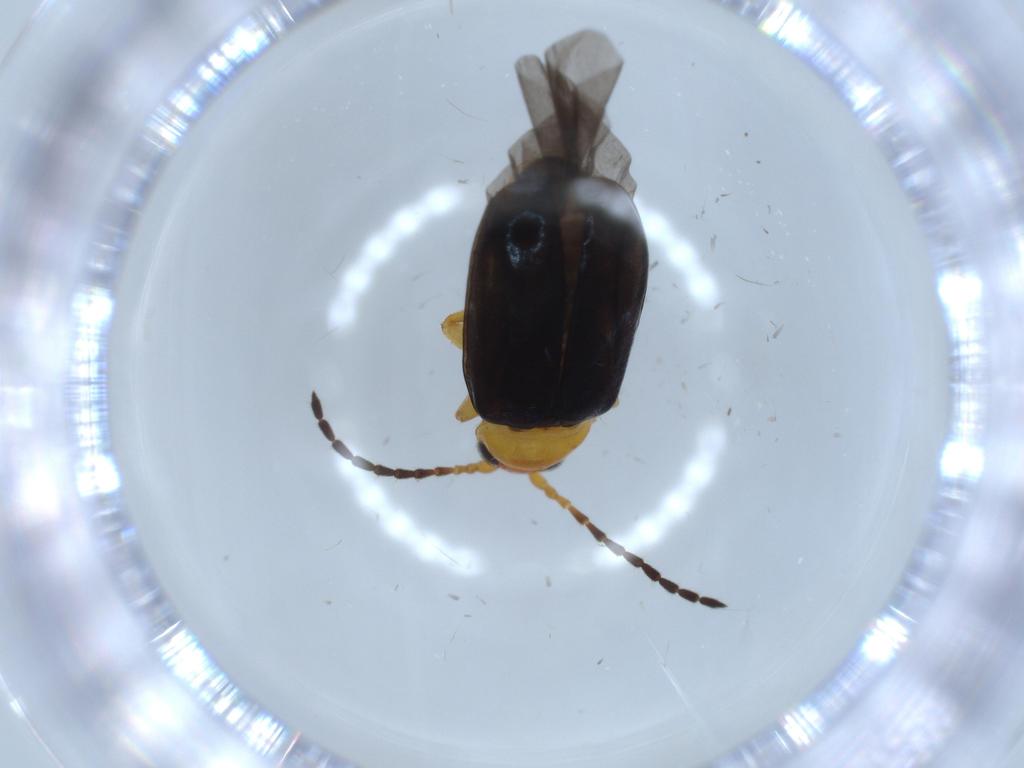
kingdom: Animalia
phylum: Arthropoda
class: Insecta
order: Coleoptera
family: Chrysomelidae
